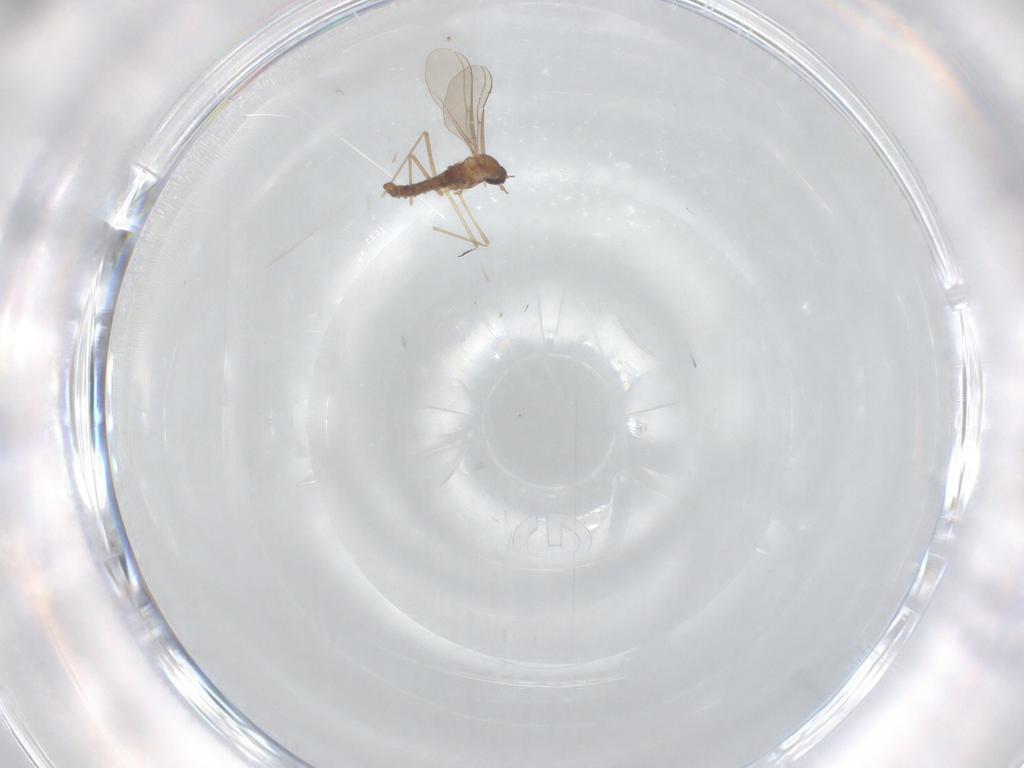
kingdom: Animalia
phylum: Arthropoda
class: Insecta
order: Diptera
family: Cecidomyiidae
